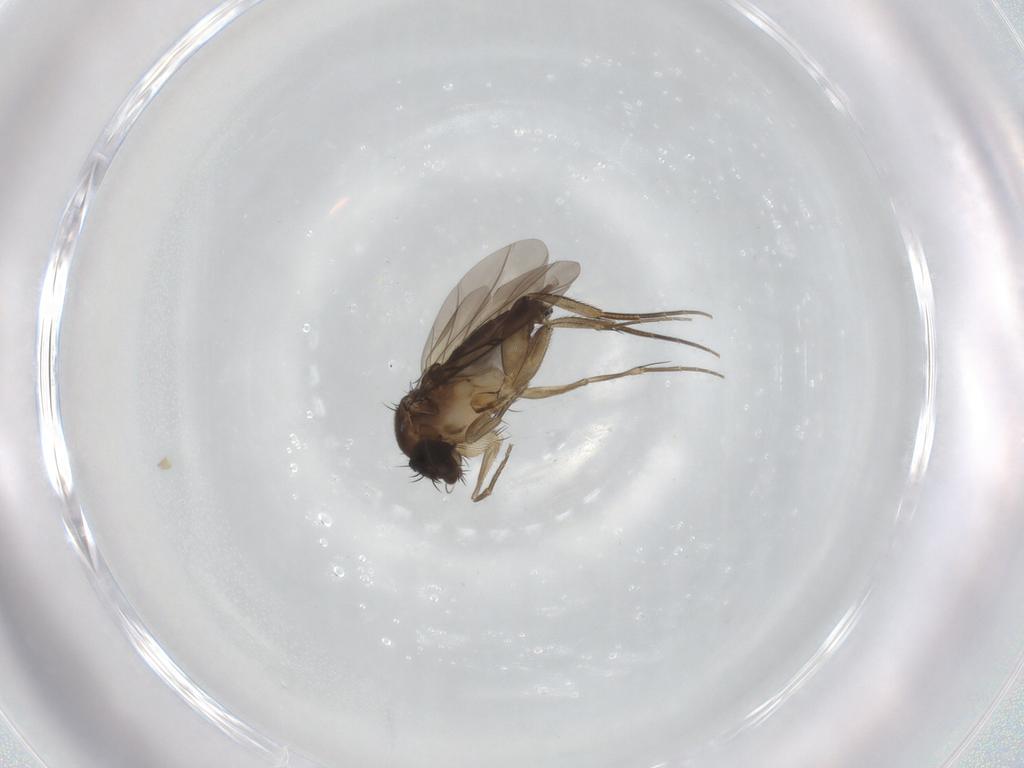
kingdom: Animalia
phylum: Arthropoda
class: Insecta
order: Diptera
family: Phoridae
